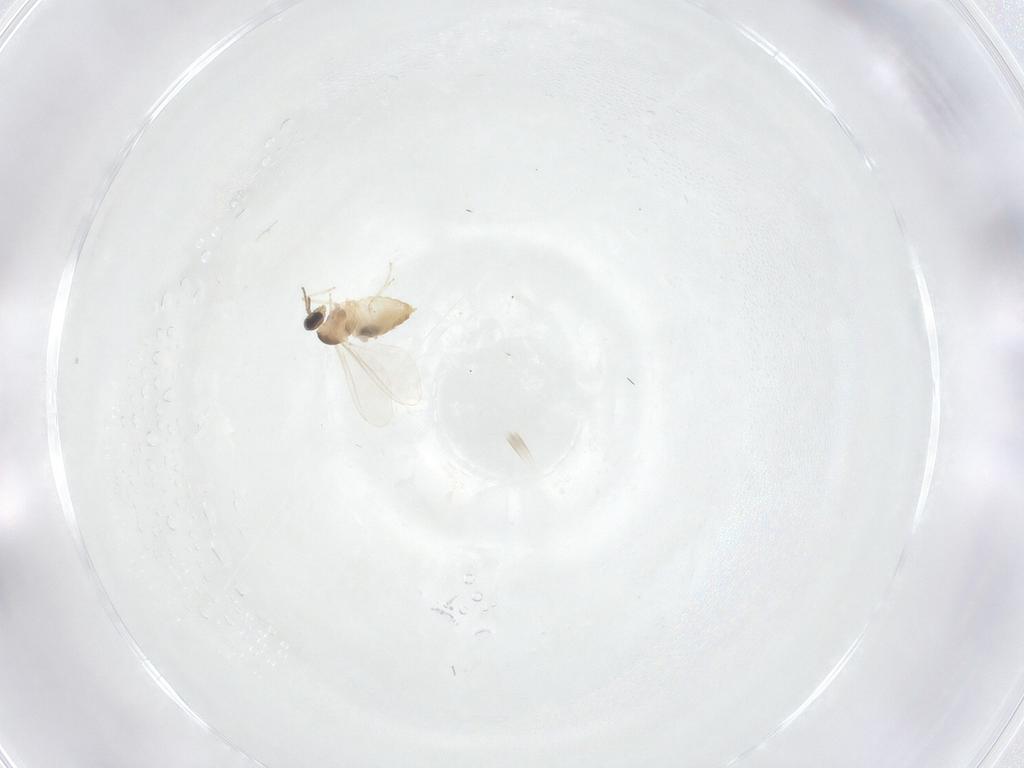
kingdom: Animalia
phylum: Arthropoda
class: Insecta
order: Diptera
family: Cecidomyiidae
